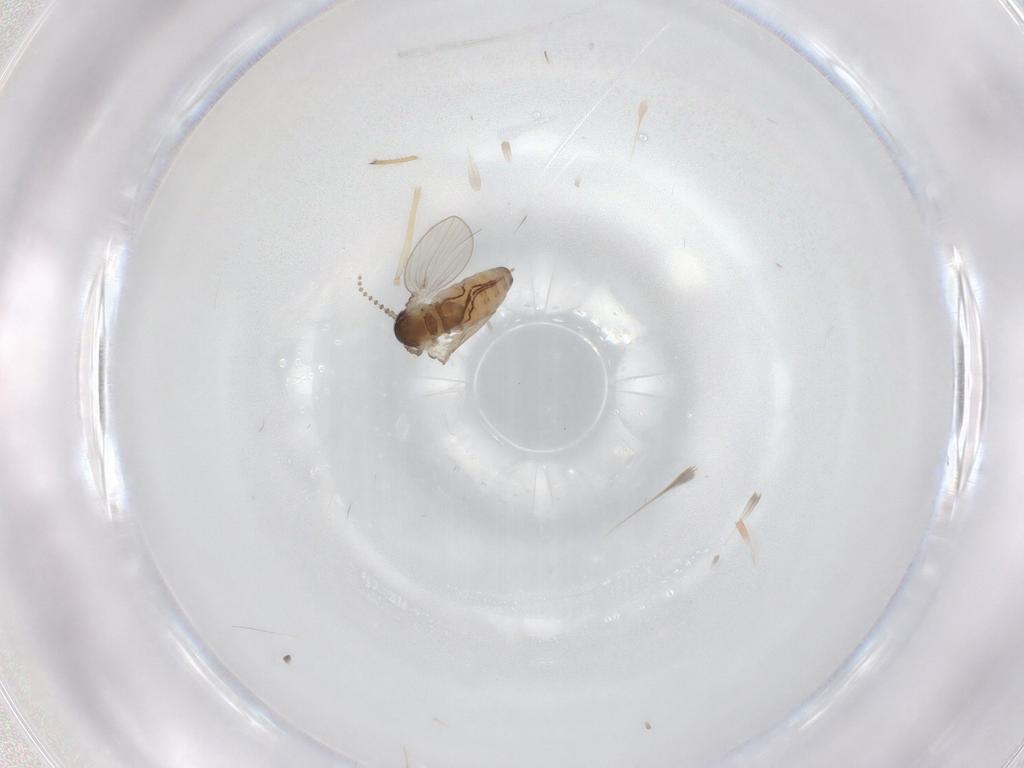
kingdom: Animalia
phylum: Arthropoda
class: Insecta
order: Diptera
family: Psychodidae
